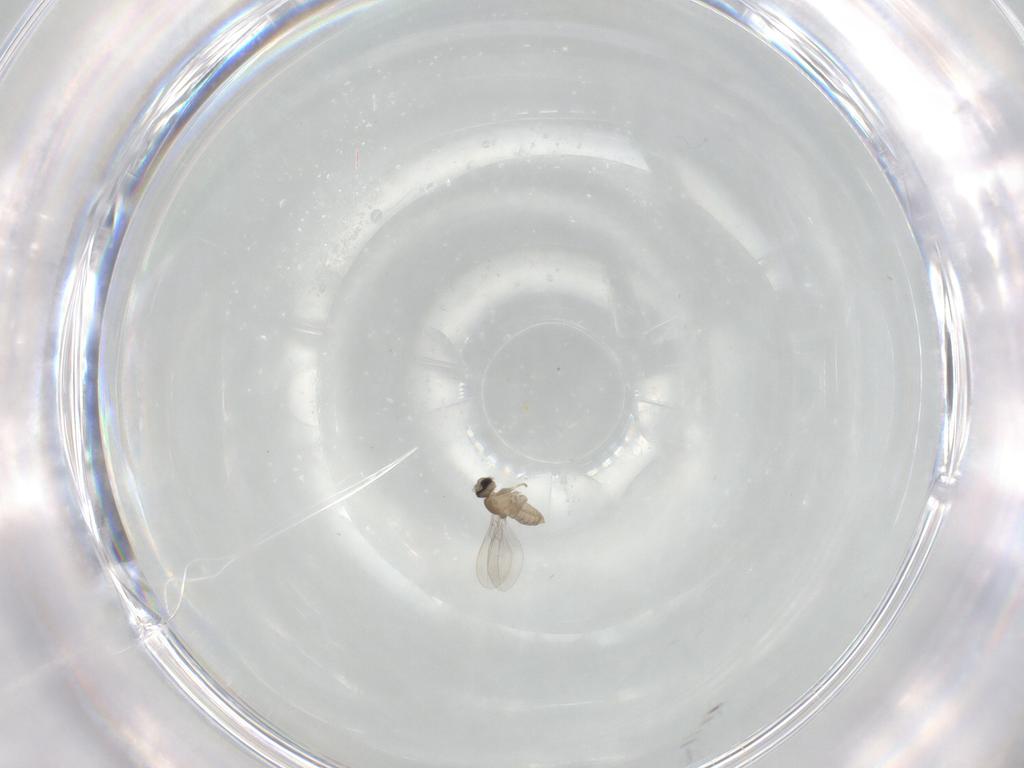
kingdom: Animalia
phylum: Arthropoda
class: Insecta
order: Diptera
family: Cecidomyiidae
